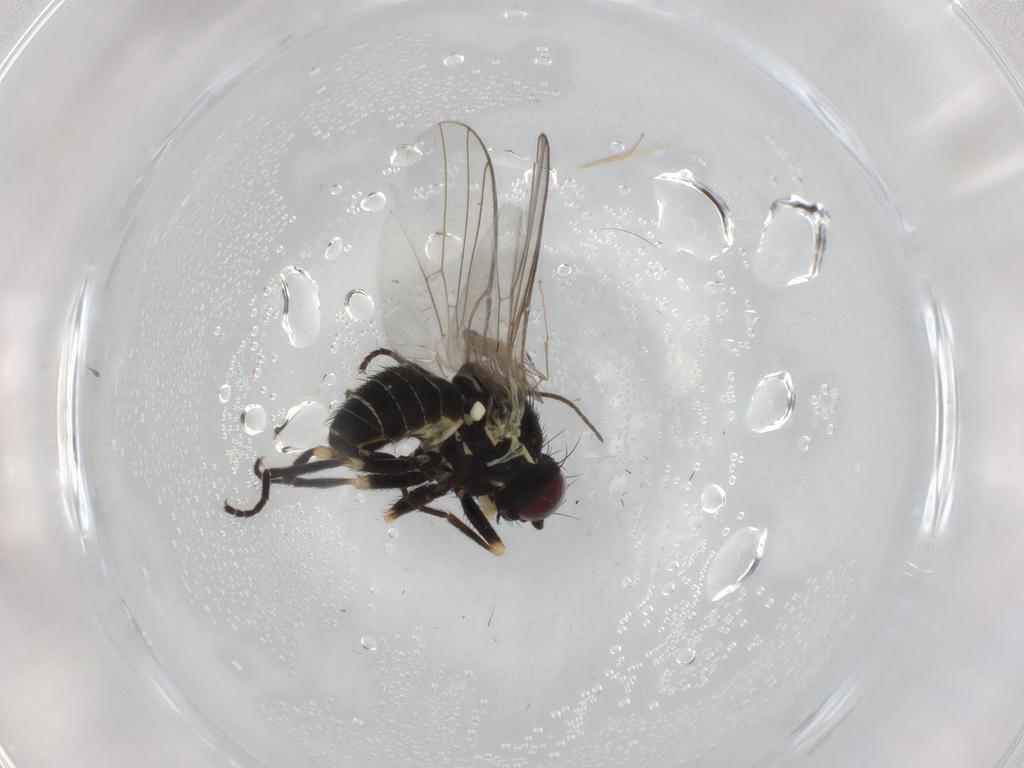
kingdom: Animalia
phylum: Arthropoda
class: Insecta
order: Diptera
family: Agromyzidae
